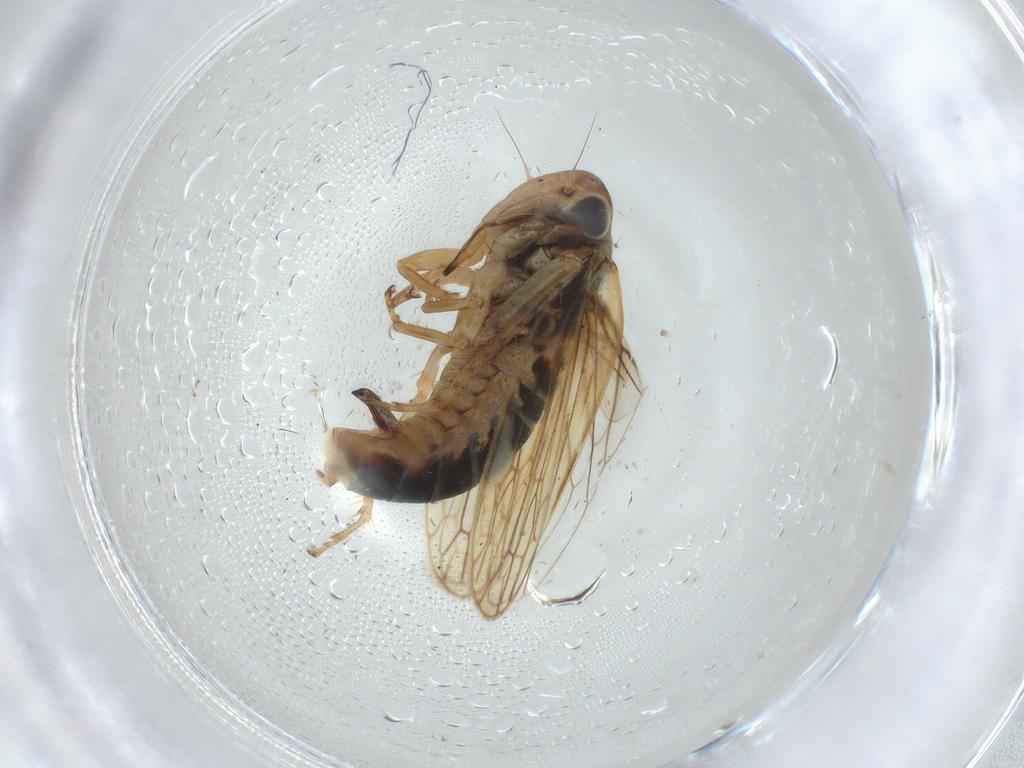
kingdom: Animalia
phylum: Arthropoda
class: Insecta
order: Hemiptera
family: Cicadellidae
